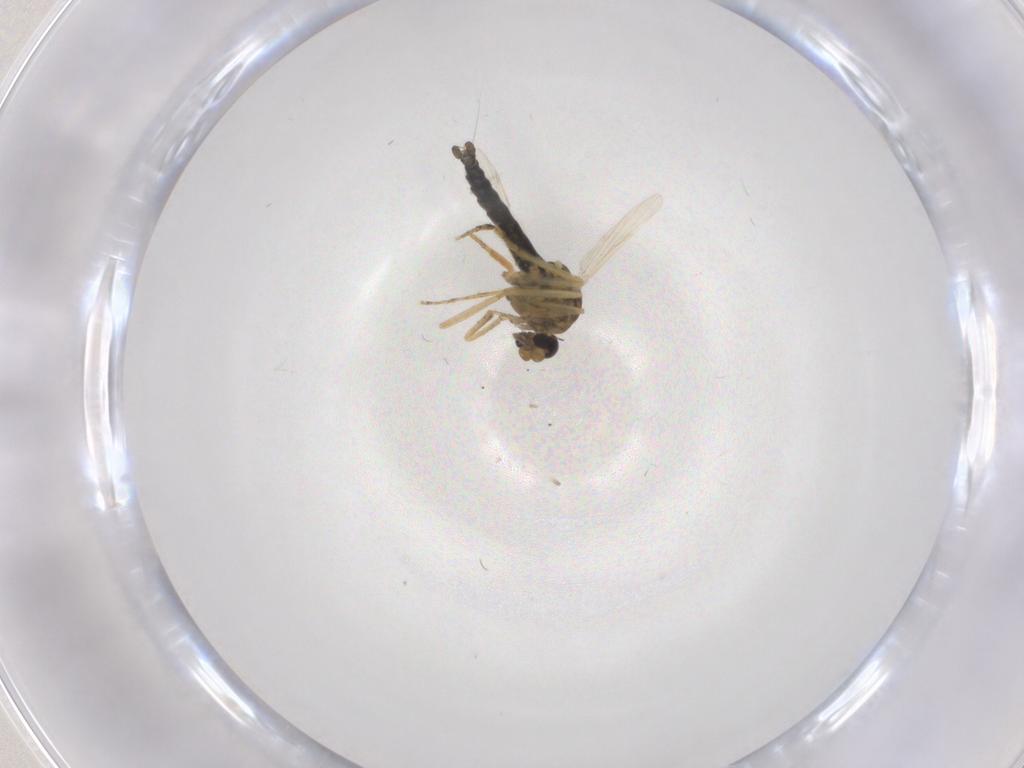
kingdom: Animalia
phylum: Arthropoda
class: Insecta
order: Diptera
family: Ceratopogonidae
